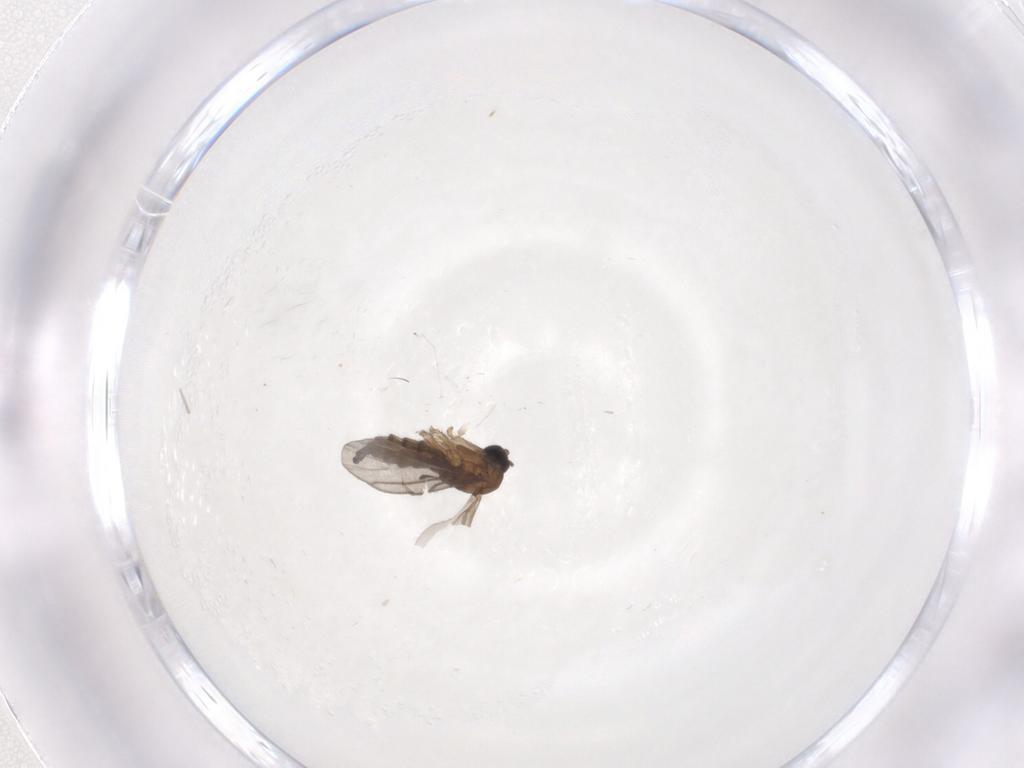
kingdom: Animalia
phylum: Arthropoda
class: Insecta
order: Diptera
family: Sciaridae
